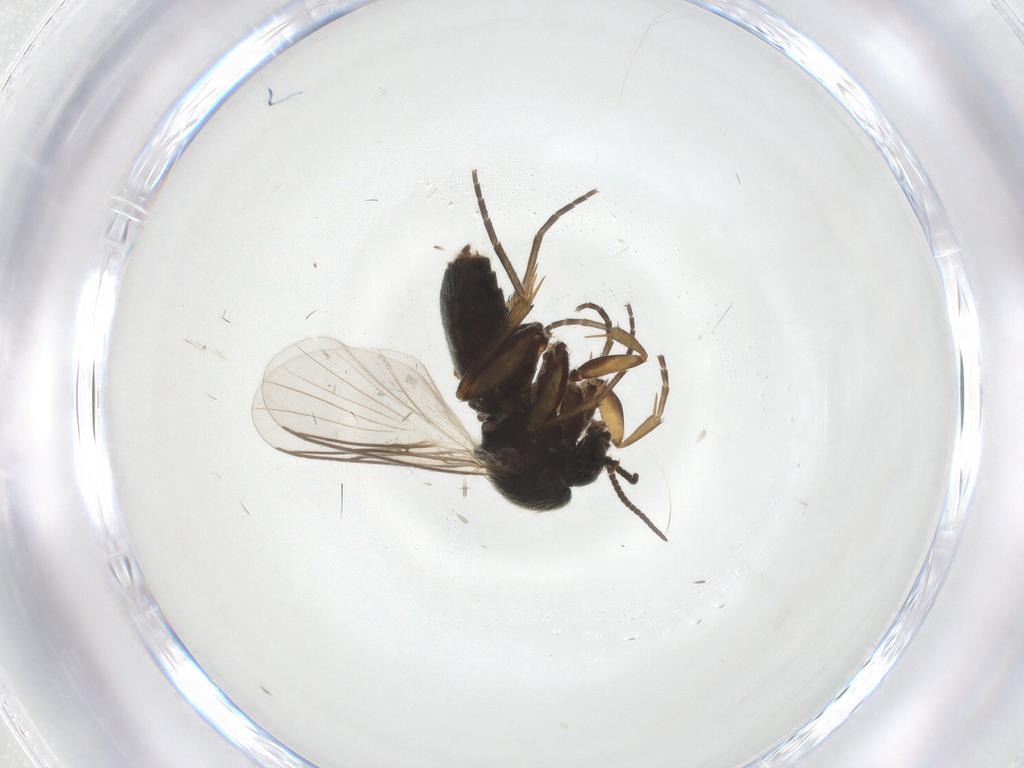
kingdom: Animalia
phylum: Arthropoda
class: Insecta
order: Diptera
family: Mycetophilidae
